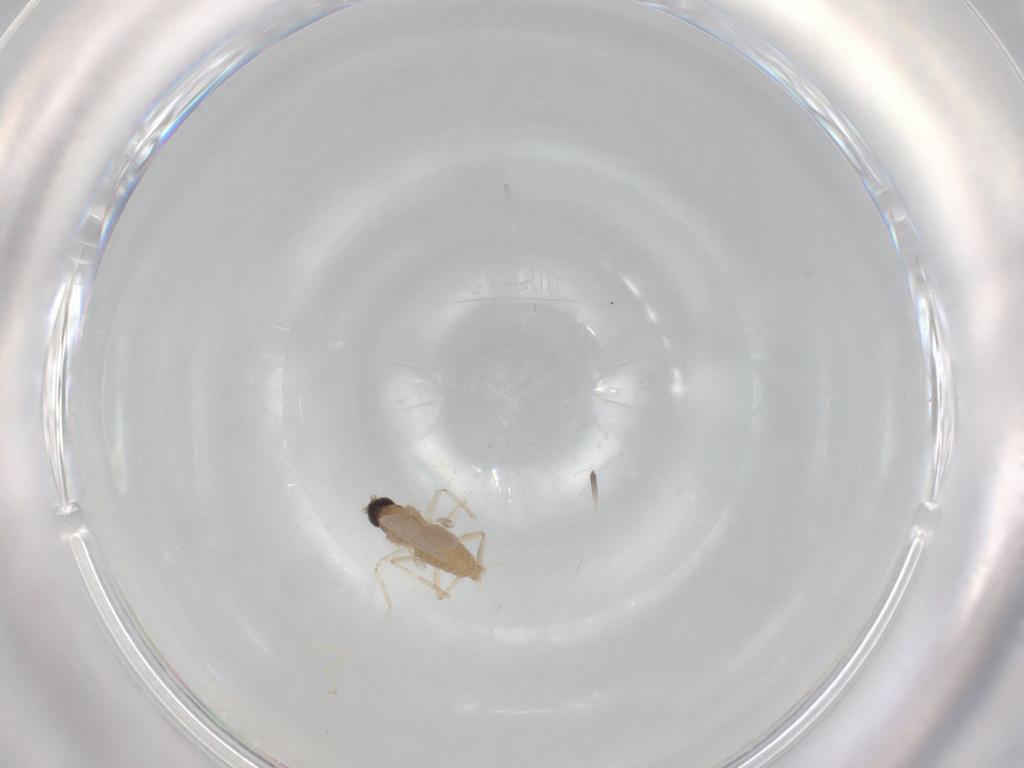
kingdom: Animalia
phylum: Arthropoda
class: Insecta
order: Diptera
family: Cecidomyiidae
